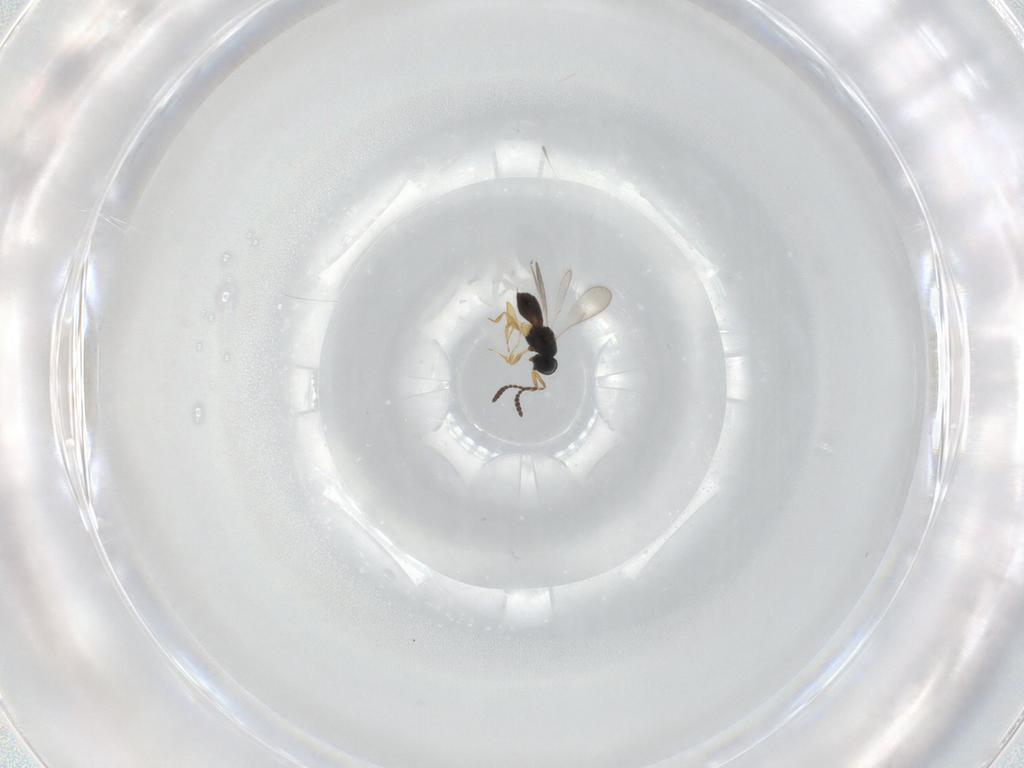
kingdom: Animalia
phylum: Arthropoda
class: Insecta
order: Hymenoptera
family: Scelionidae
